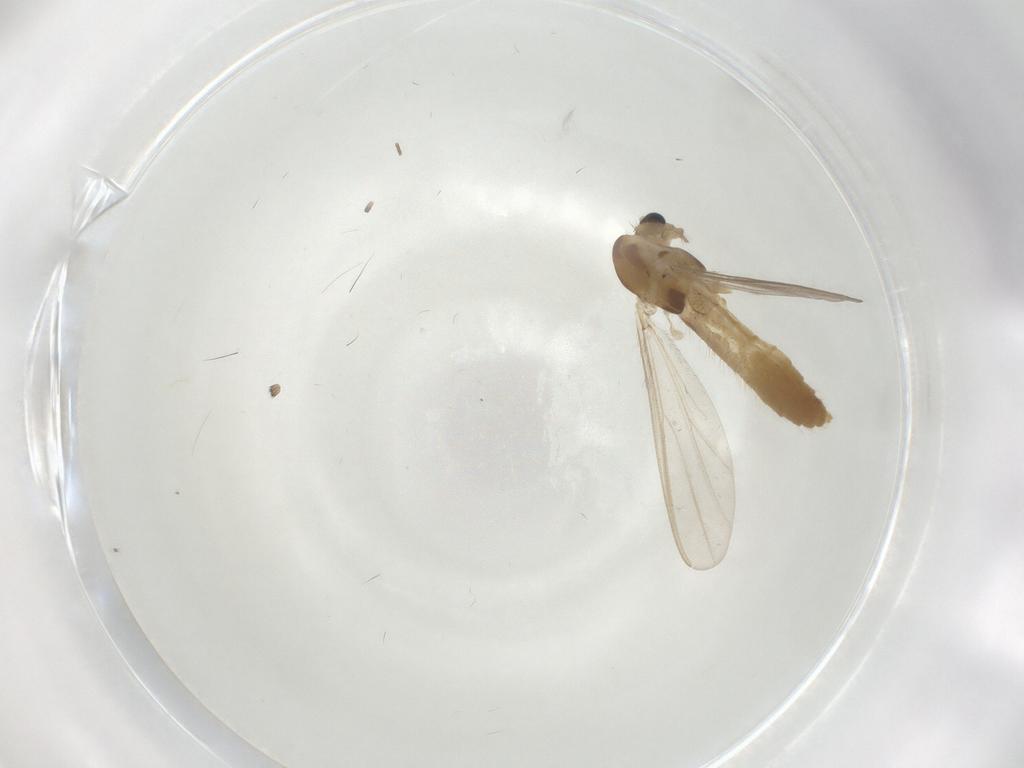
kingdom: Animalia
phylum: Arthropoda
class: Insecta
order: Diptera
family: Chironomidae
